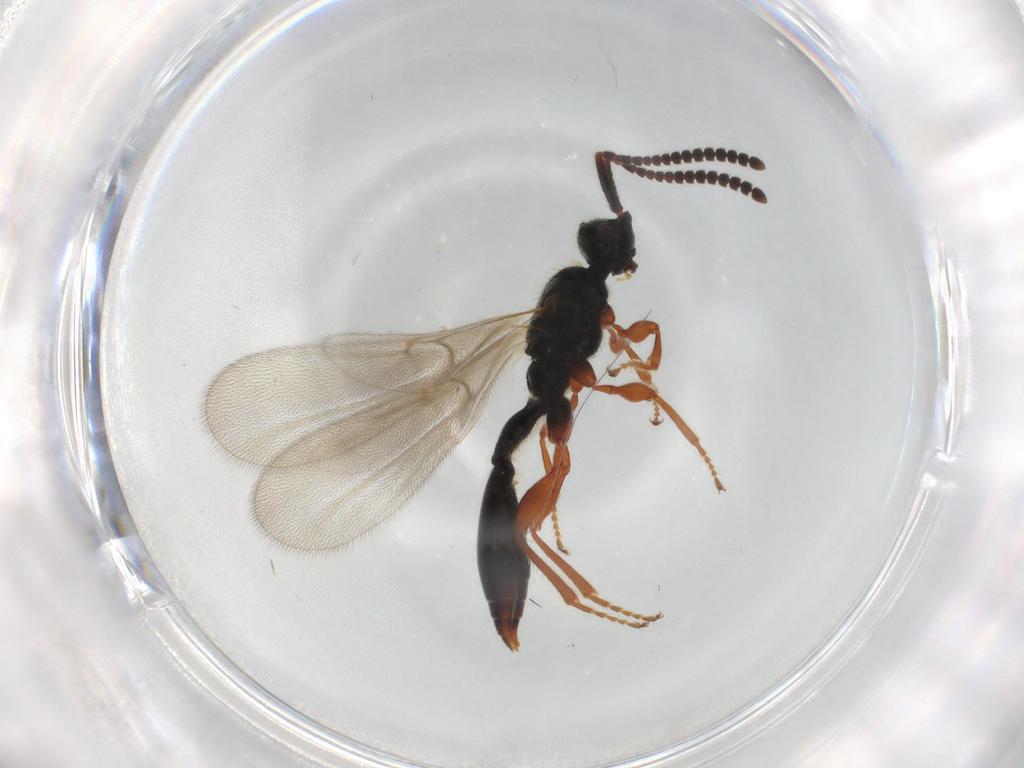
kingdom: Animalia
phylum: Arthropoda
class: Insecta
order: Hymenoptera
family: Diapriidae
